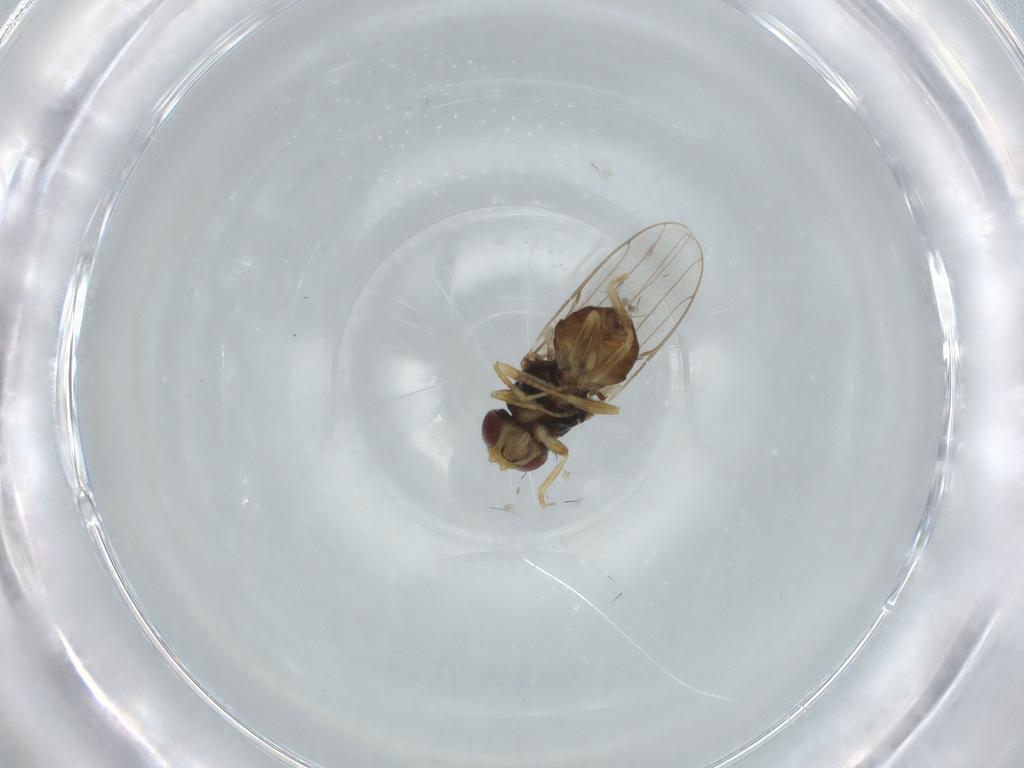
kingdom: Animalia
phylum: Arthropoda
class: Insecta
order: Diptera
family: Chloropidae
